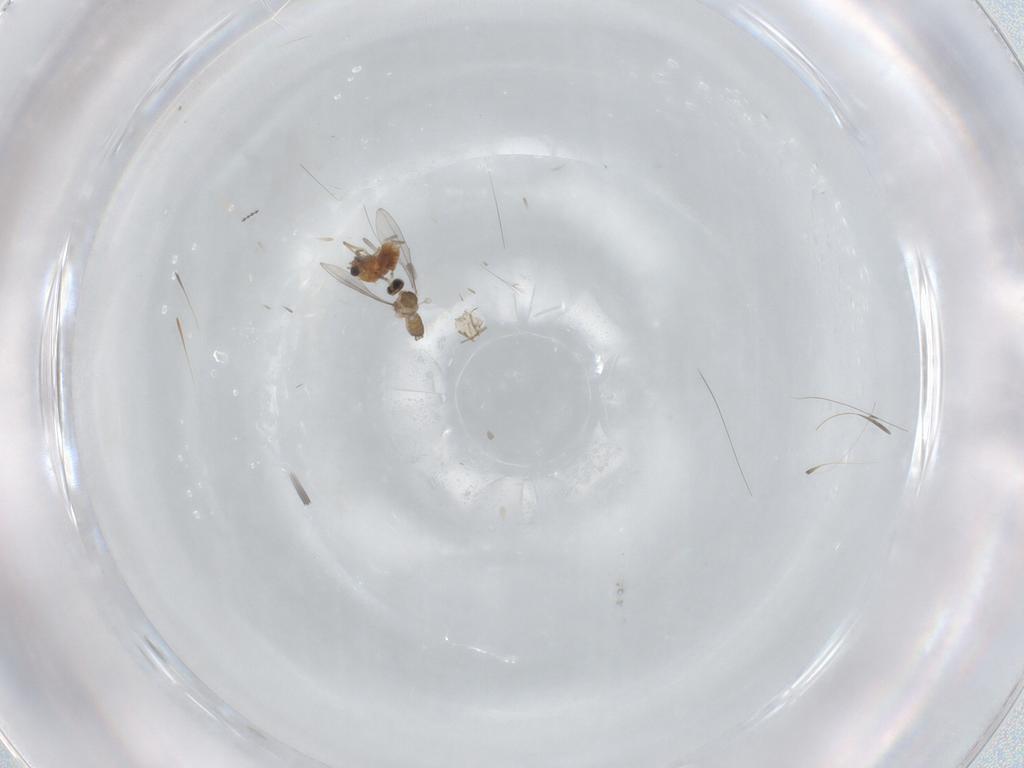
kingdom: Animalia
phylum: Arthropoda
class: Insecta
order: Diptera
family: Chironomidae
